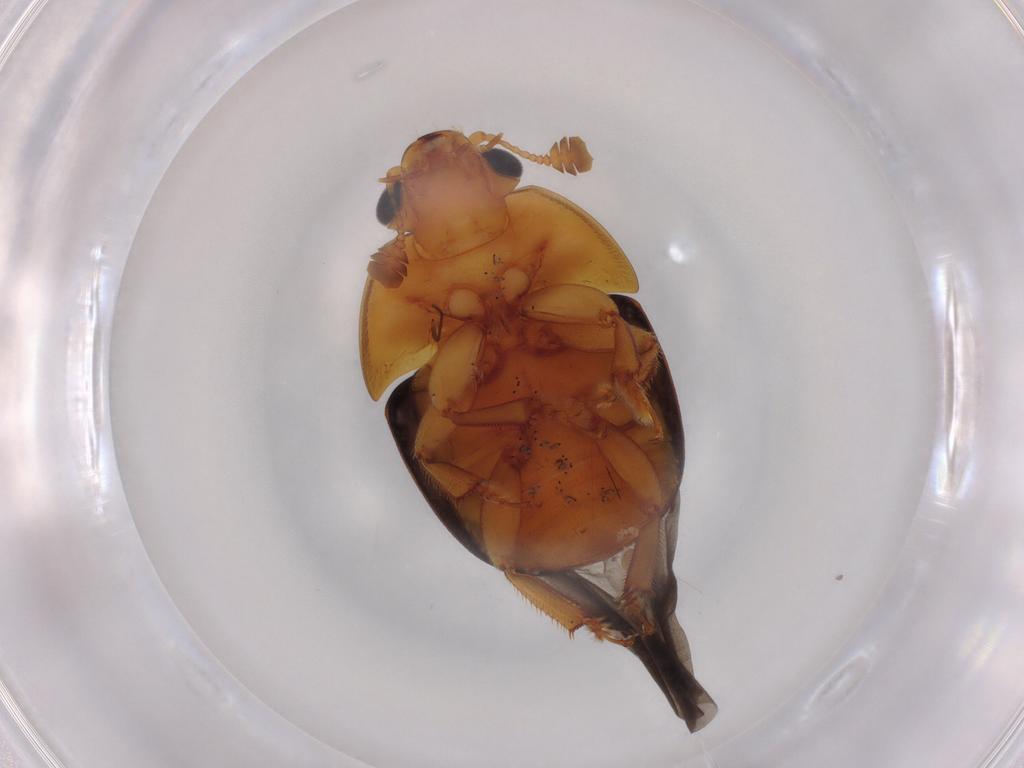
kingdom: Animalia
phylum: Arthropoda
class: Insecta
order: Coleoptera
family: Nitidulidae
